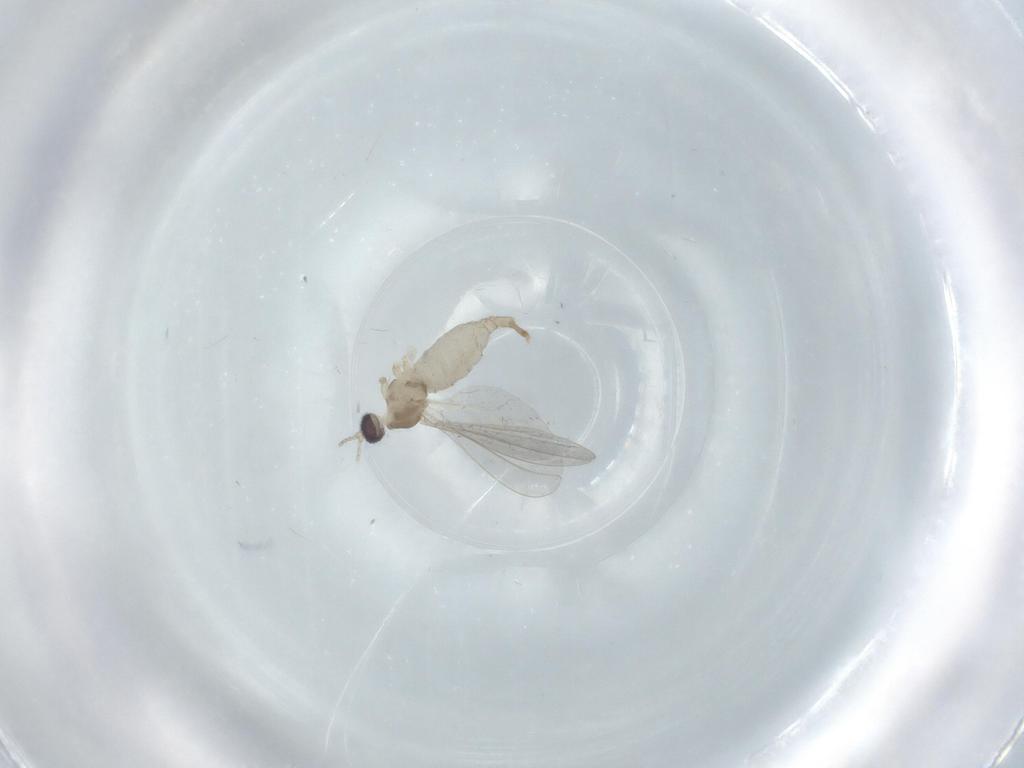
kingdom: Animalia
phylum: Arthropoda
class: Insecta
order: Diptera
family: Cecidomyiidae
